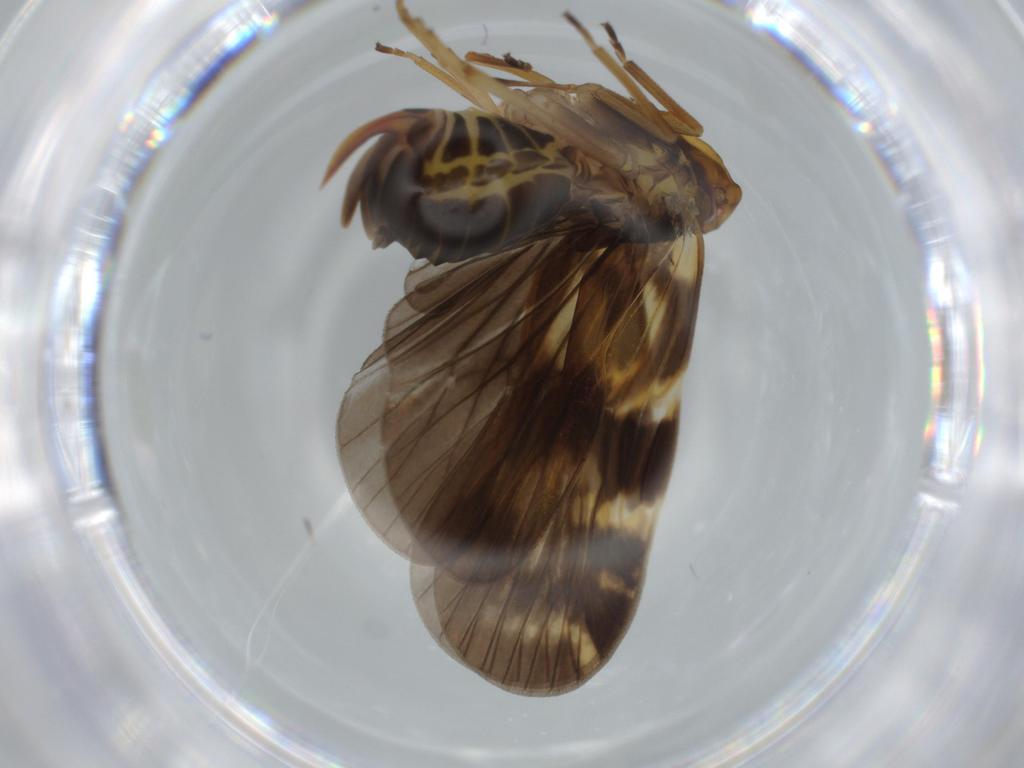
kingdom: Animalia
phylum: Arthropoda
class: Insecta
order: Hemiptera
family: Cixiidae
